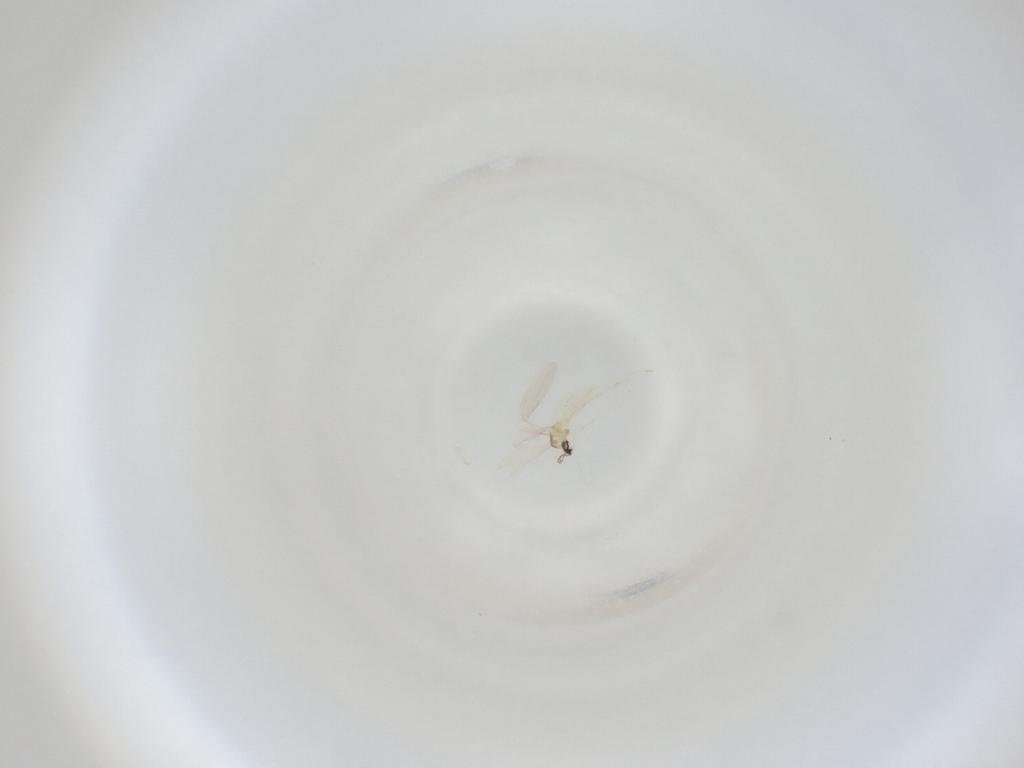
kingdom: Animalia
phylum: Arthropoda
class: Insecta
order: Diptera
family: Cecidomyiidae
